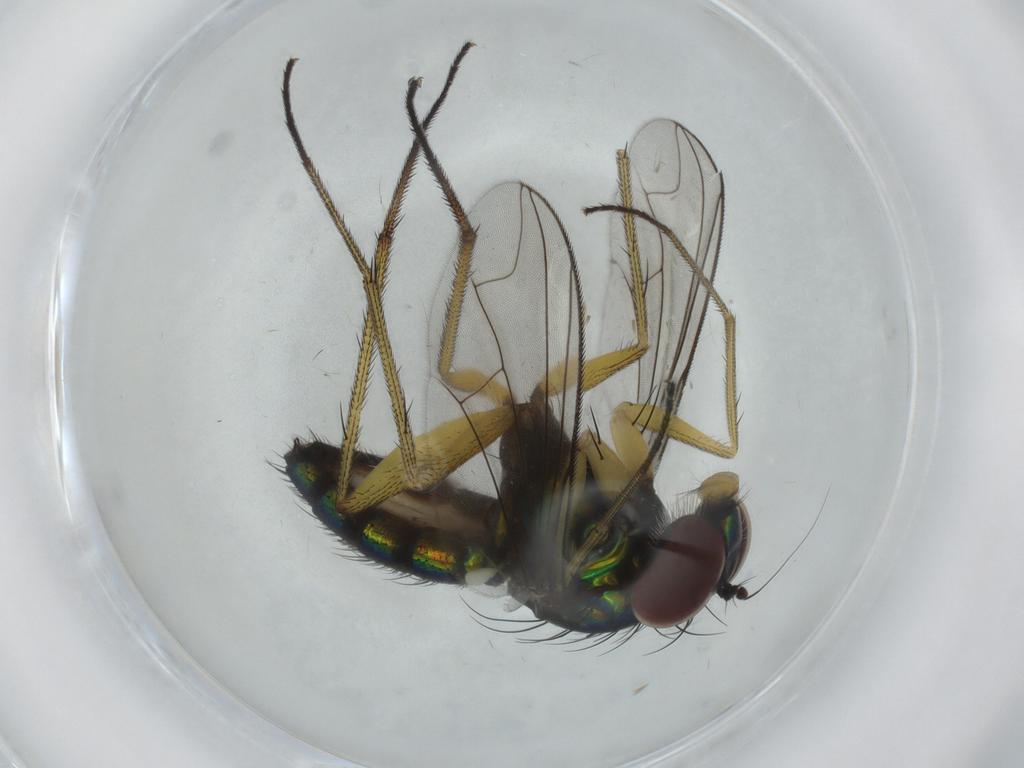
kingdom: Animalia
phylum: Arthropoda
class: Insecta
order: Diptera
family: Dolichopodidae
